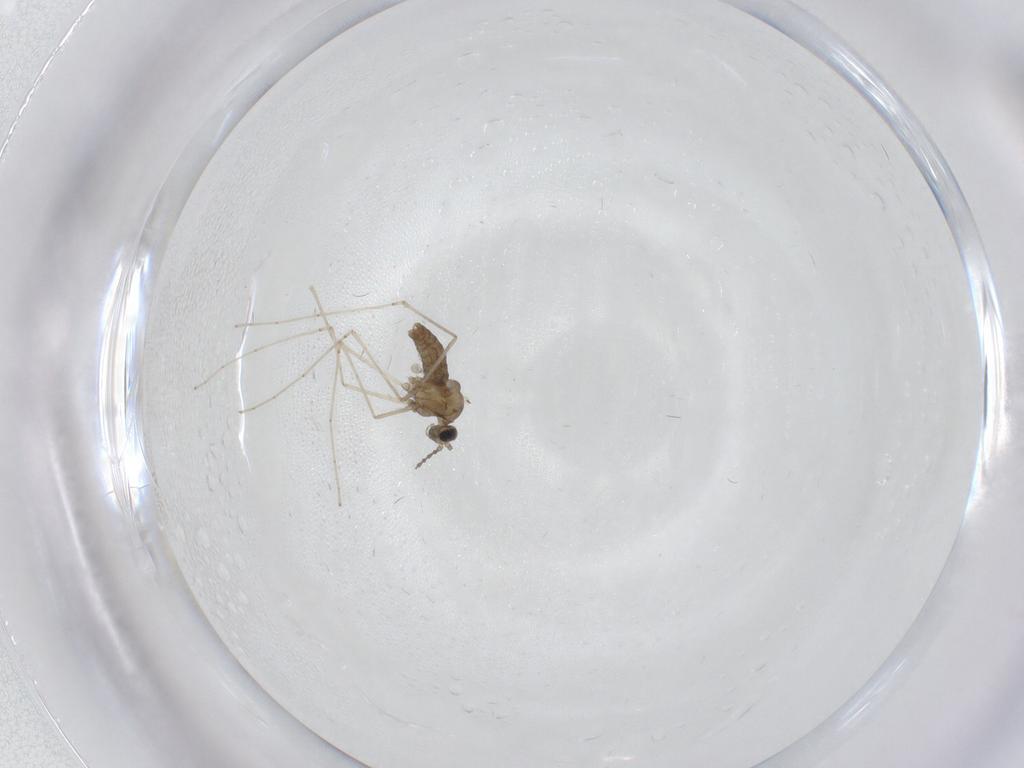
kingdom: Animalia
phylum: Arthropoda
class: Insecta
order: Diptera
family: Cecidomyiidae
